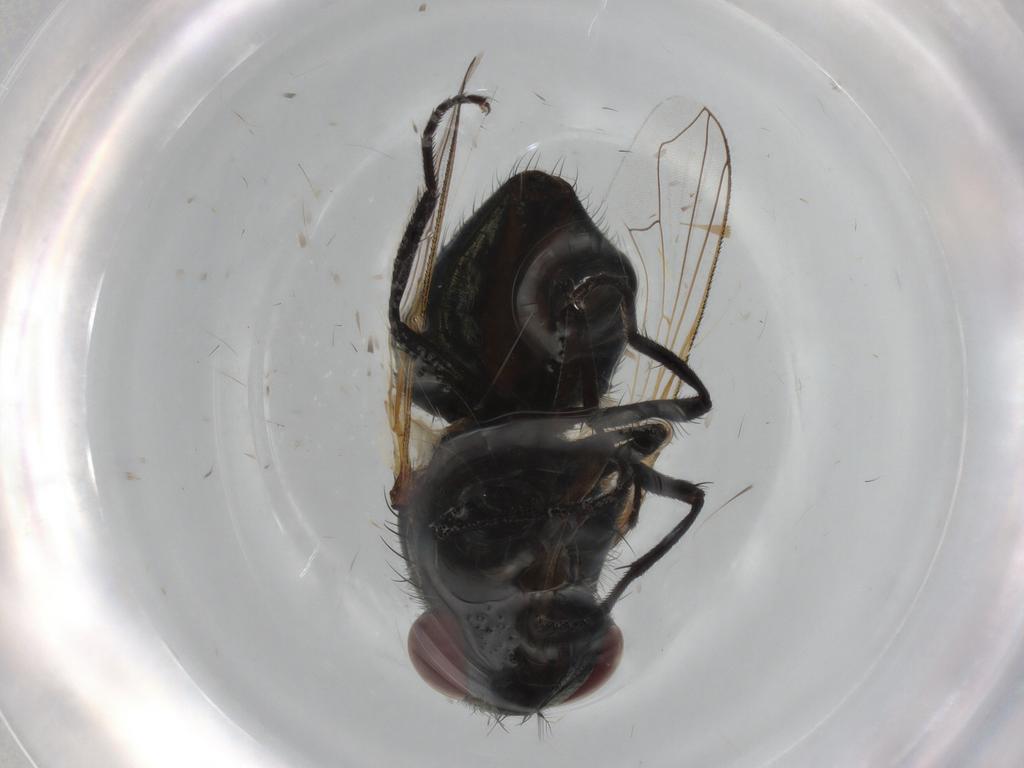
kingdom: Animalia
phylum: Arthropoda
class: Insecta
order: Diptera
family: Muscidae
